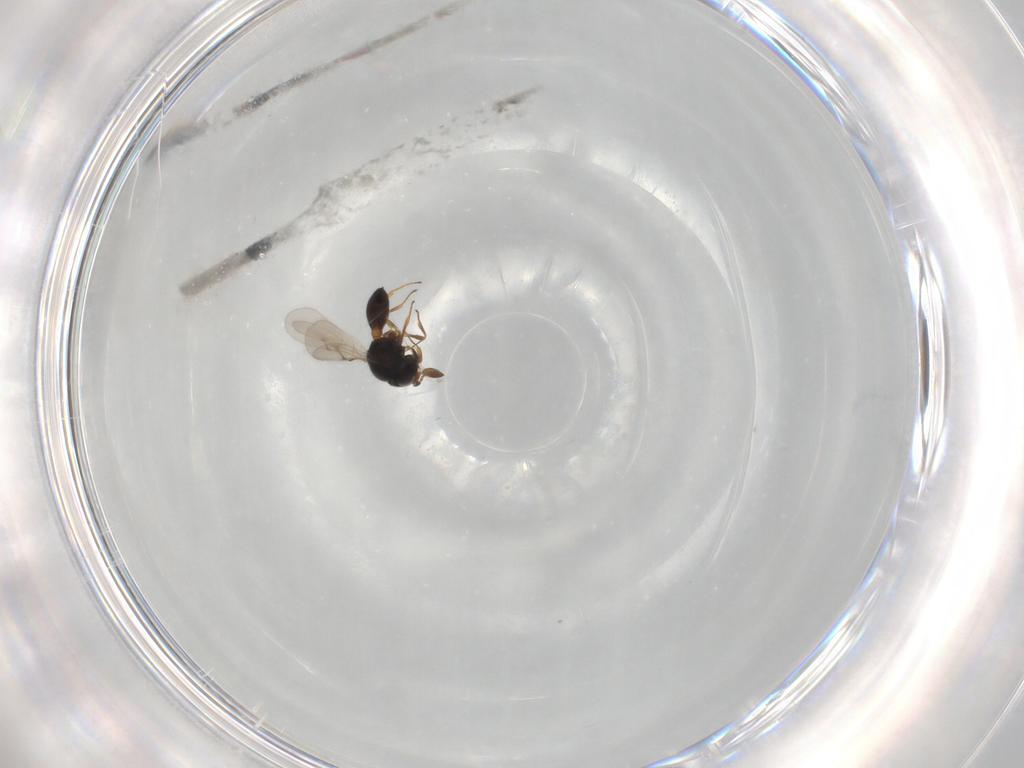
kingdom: Animalia
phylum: Arthropoda
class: Insecta
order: Hymenoptera
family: Scelionidae
